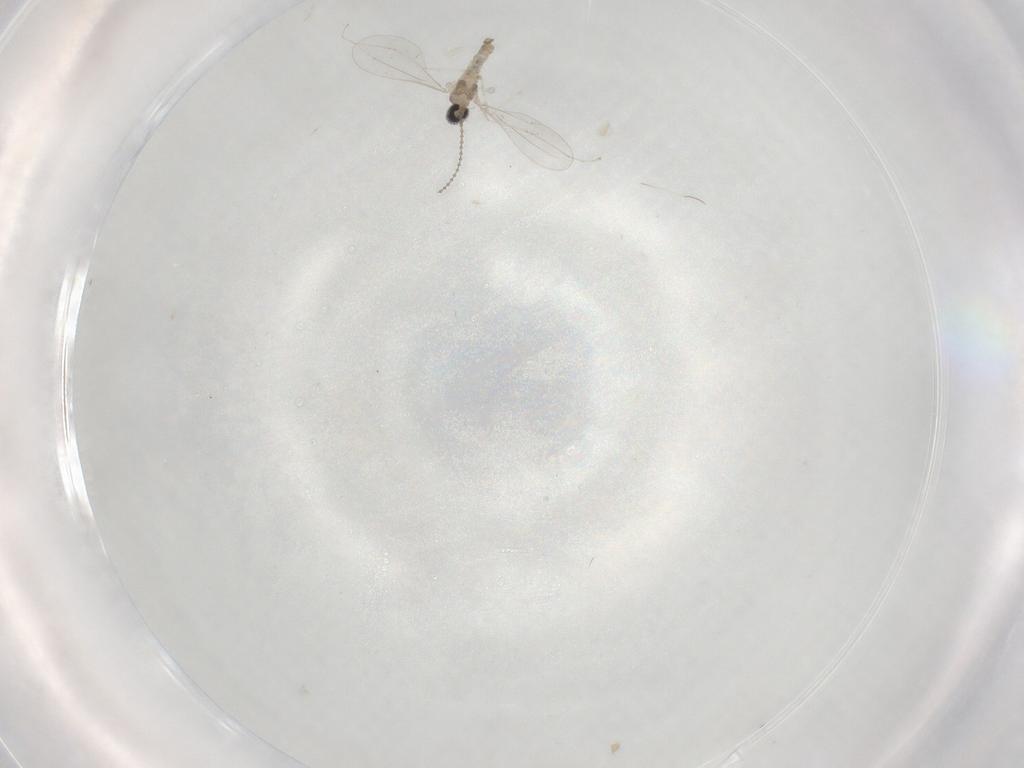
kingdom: Animalia
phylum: Arthropoda
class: Insecta
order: Diptera
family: Cecidomyiidae
